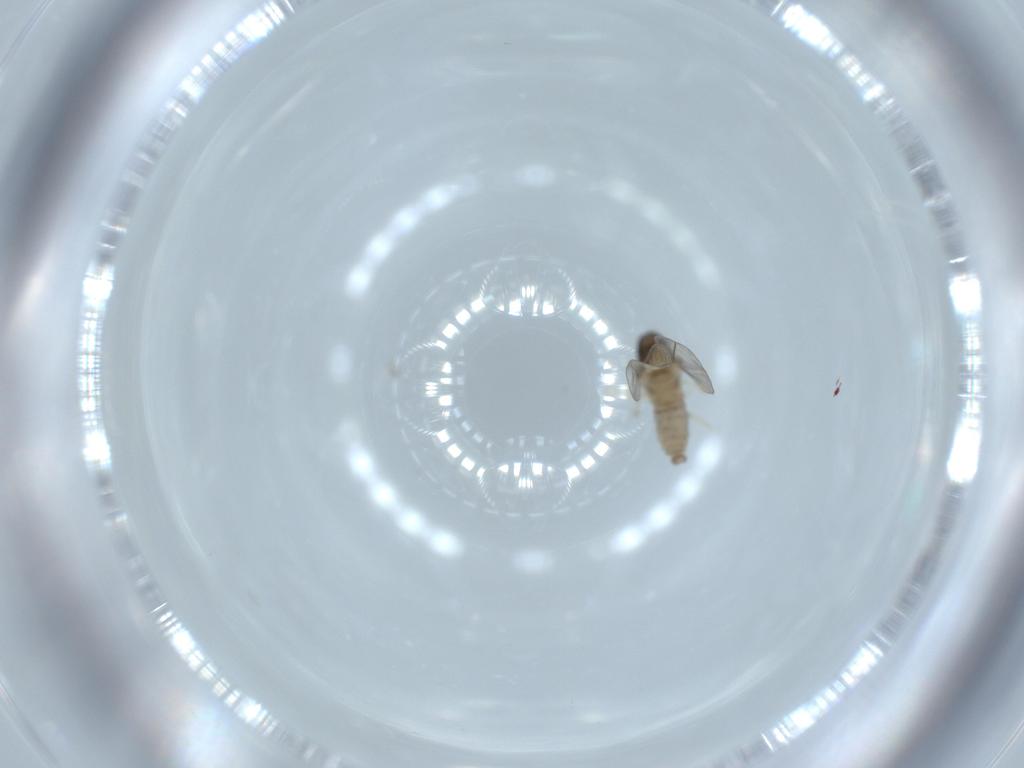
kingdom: Animalia
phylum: Arthropoda
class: Insecta
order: Diptera
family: Cecidomyiidae
